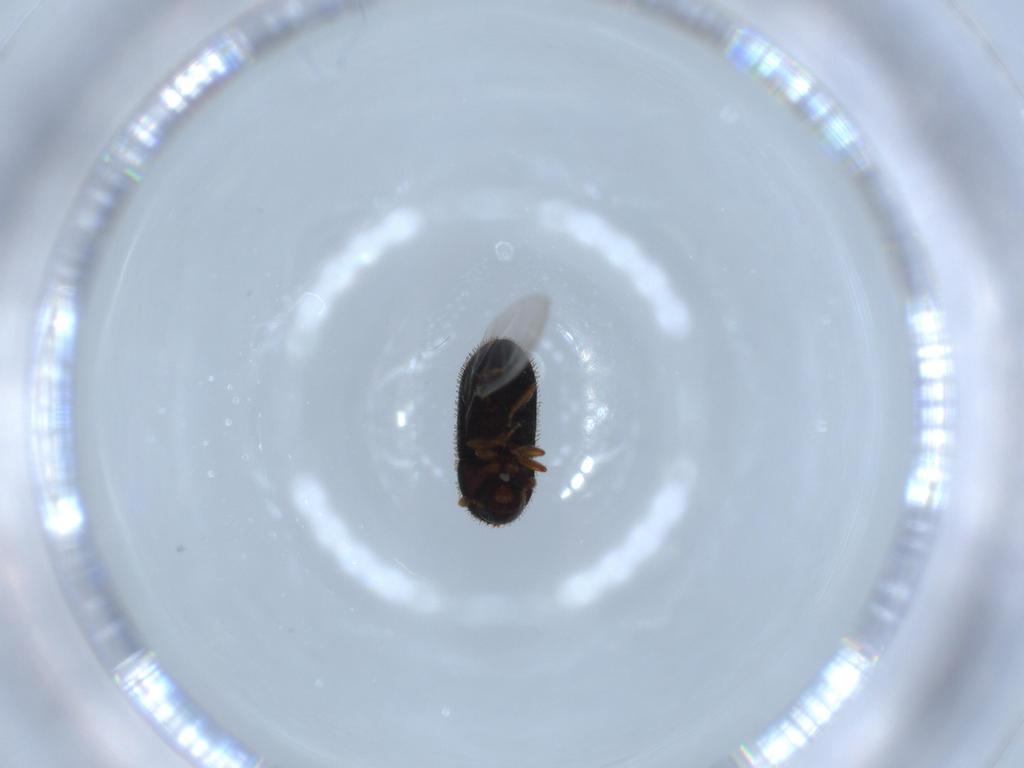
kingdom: Animalia
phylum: Arthropoda
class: Insecta
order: Coleoptera
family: Curculionidae
